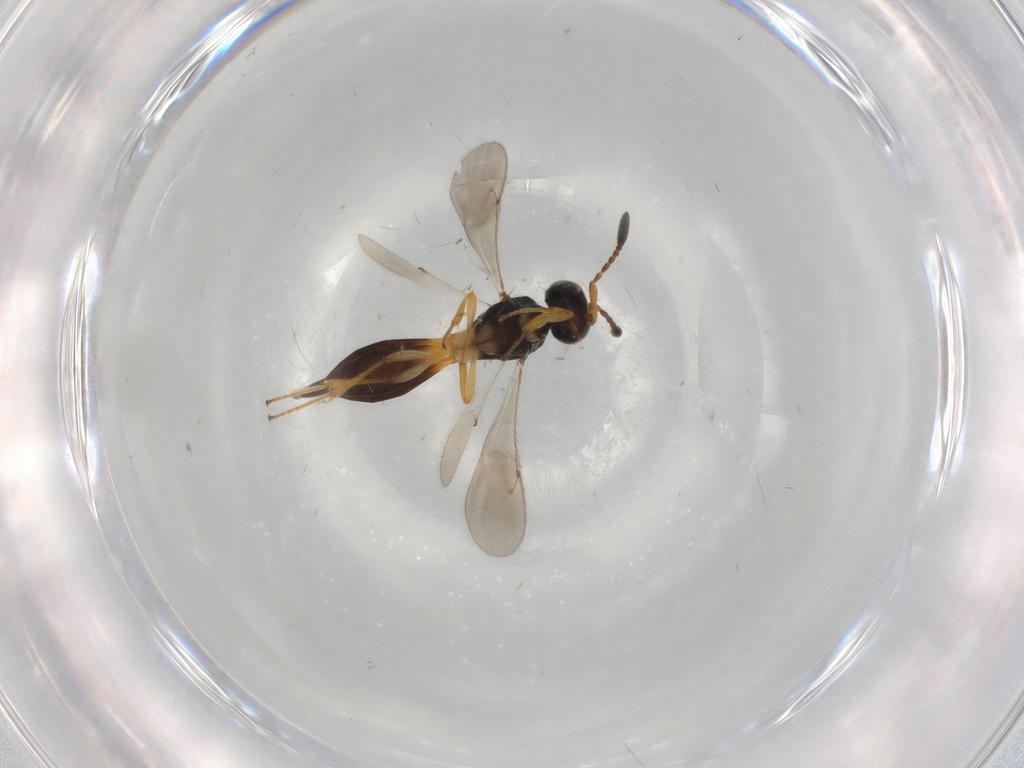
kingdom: Animalia
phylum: Arthropoda
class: Insecta
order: Hymenoptera
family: Scelionidae
